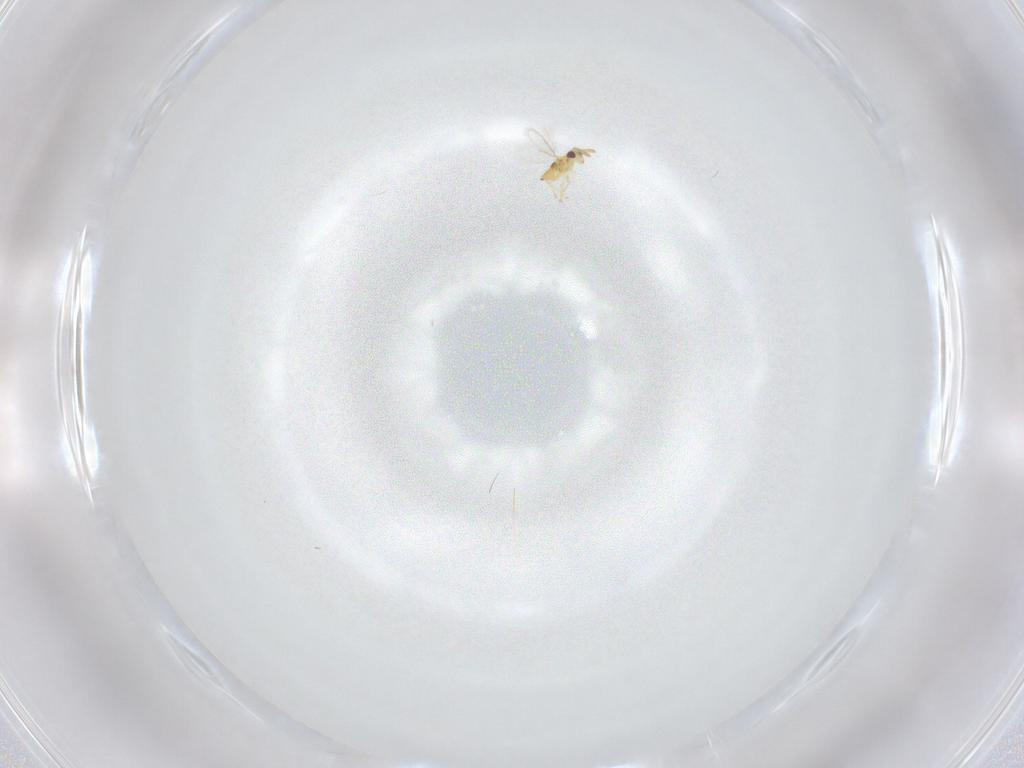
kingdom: Animalia
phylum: Arthropoda
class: Insecta
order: Hymenoptera
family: Aphelinidae
